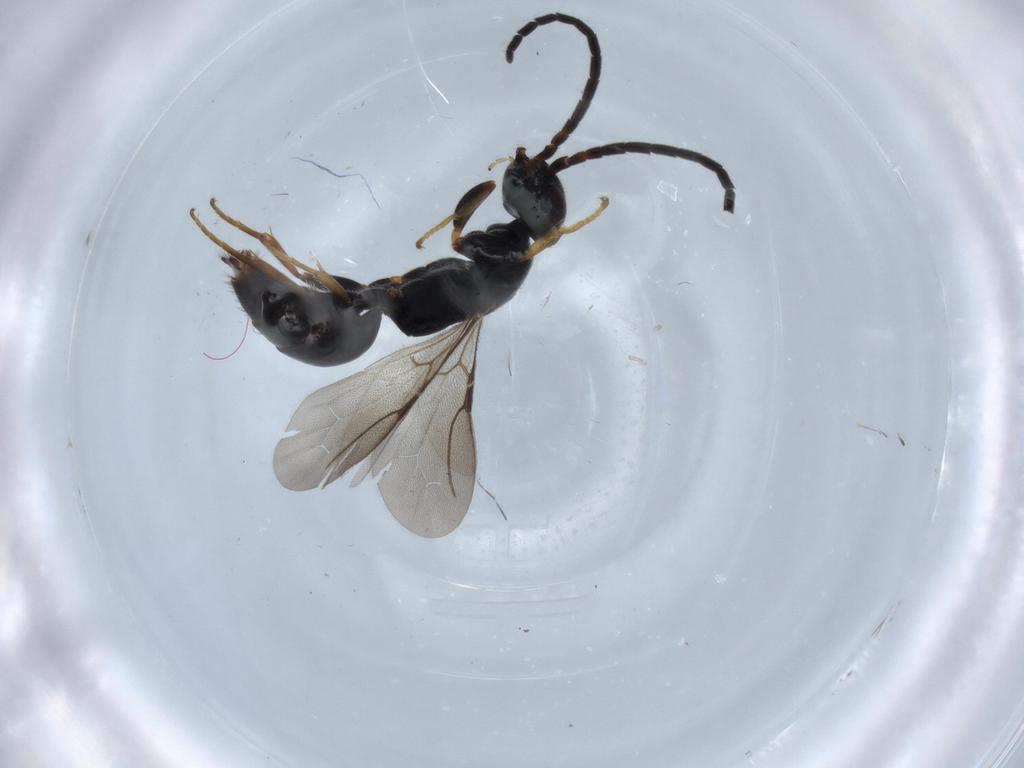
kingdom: Animalia
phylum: Arthropoda
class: Insecta
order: Hymenoptera
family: Bethylidae
